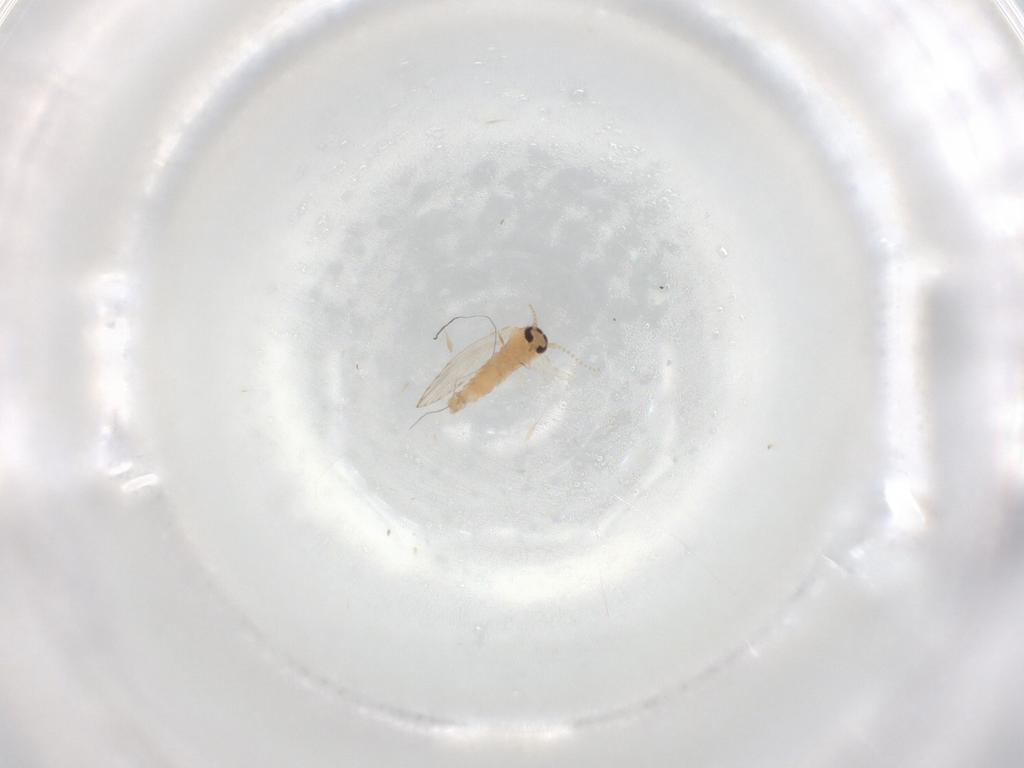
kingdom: Animalia
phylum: Arthropoda
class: Insecta
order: Diptera
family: Psychodidae
